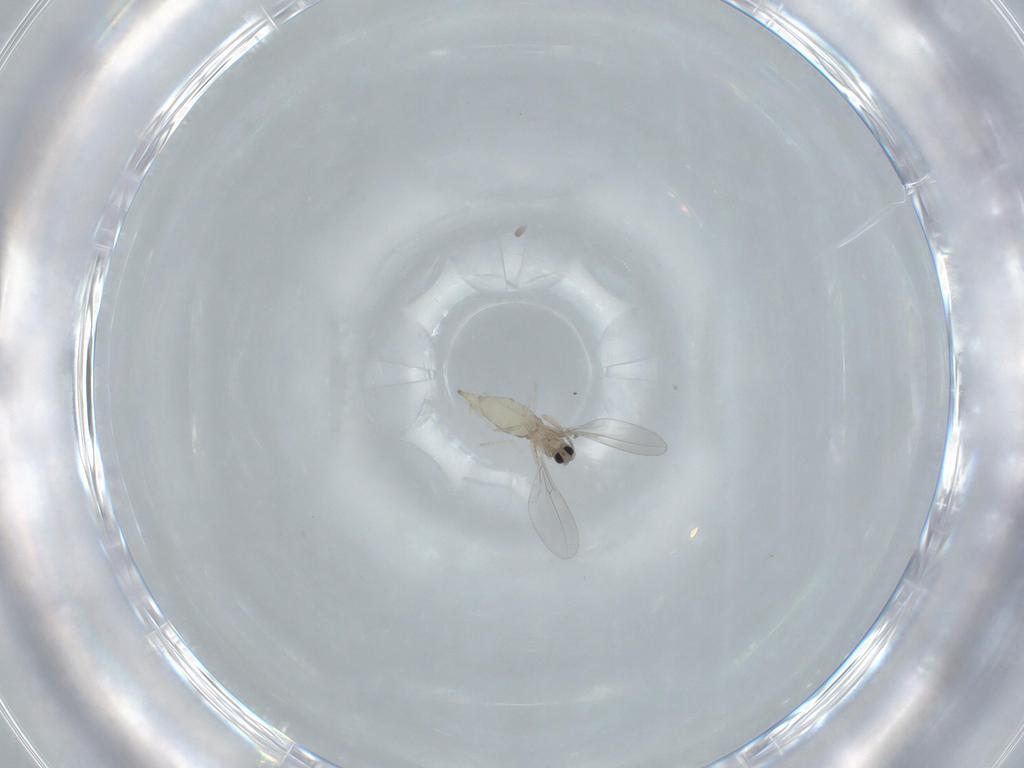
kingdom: Animalia
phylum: Arthropoda
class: Insecta
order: Diptera
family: Cecidomyiidae
